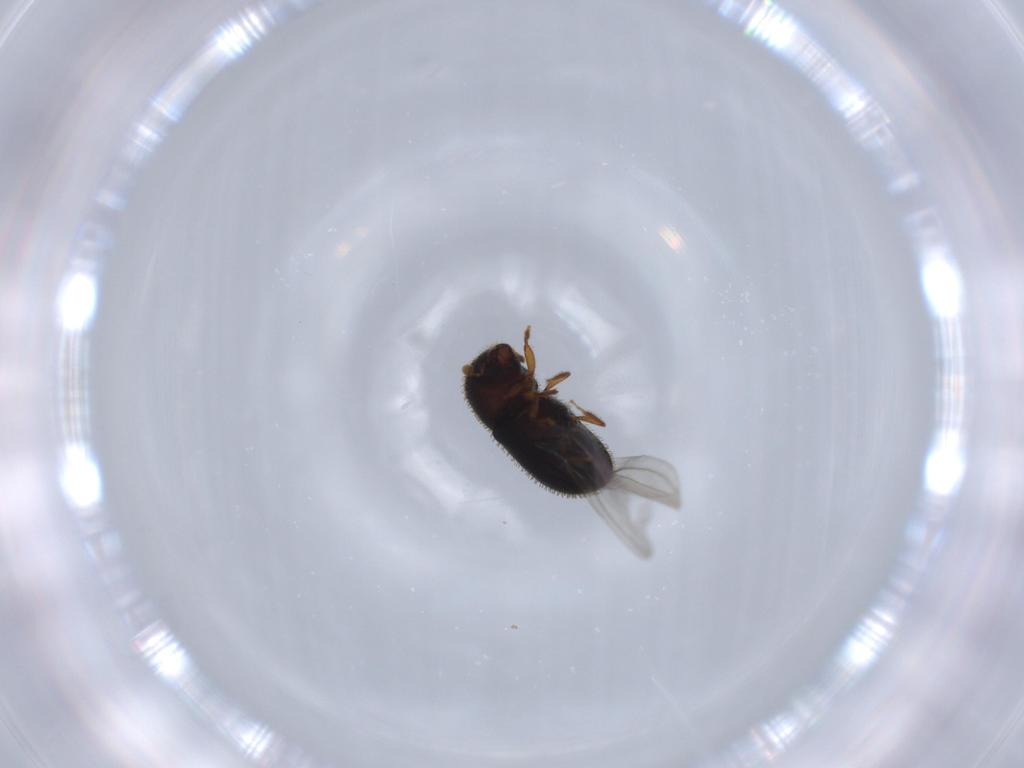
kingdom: Animalia
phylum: Arthropoda
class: Insecta
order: Coleoptera
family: Curculionidae
